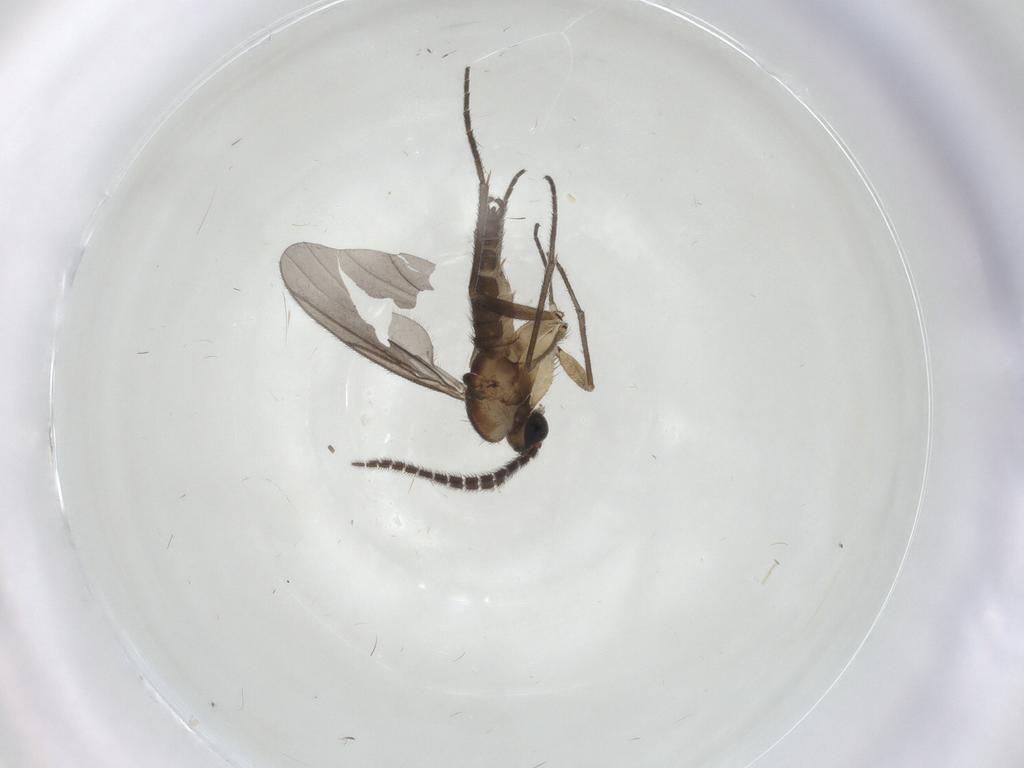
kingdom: Animalia
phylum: Arthropoda
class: Insecta
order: Diptera
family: Sciaridae
